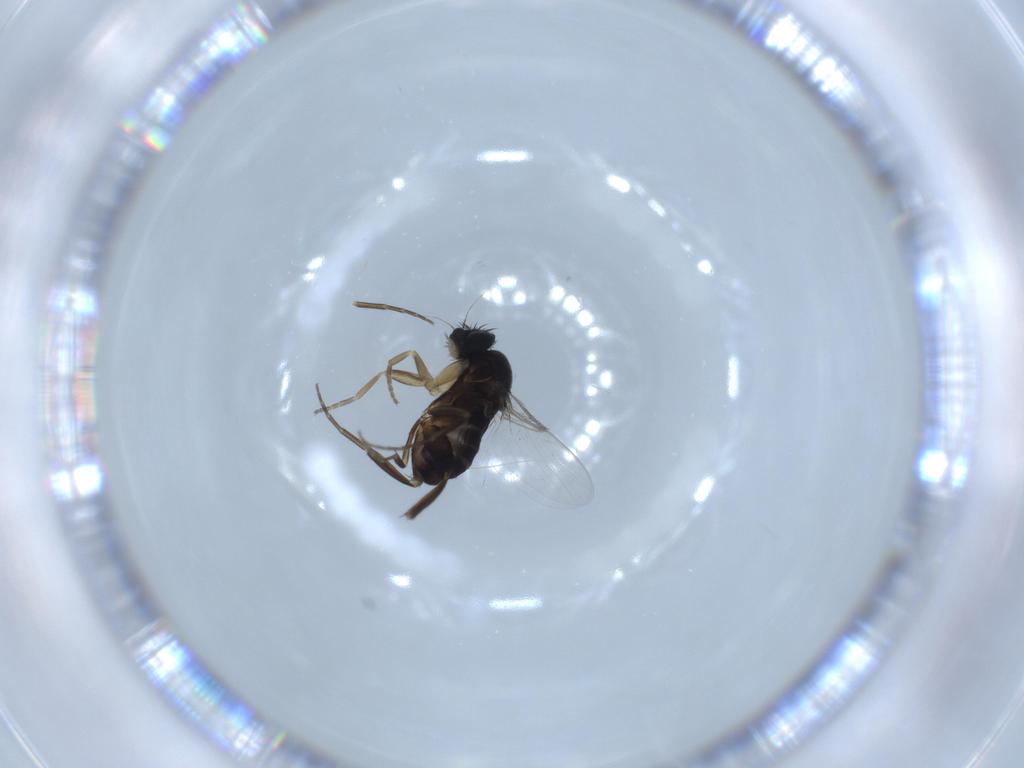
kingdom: Animalia
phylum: Arthropoda
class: Insecta
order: Diptera
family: Phoridae
